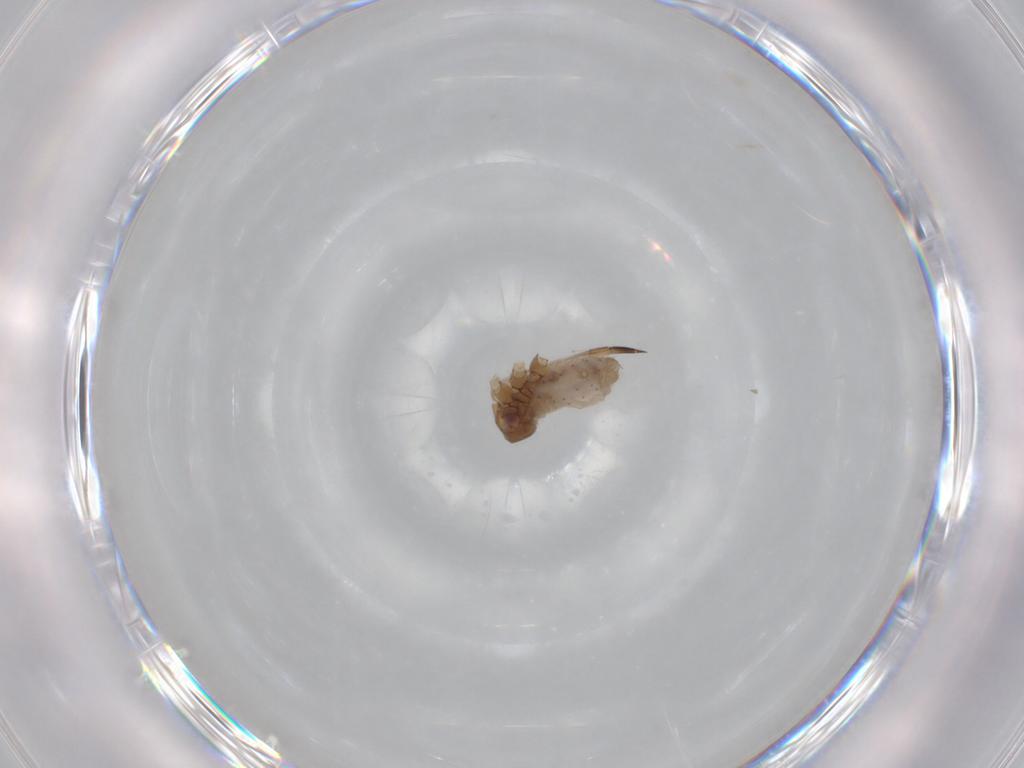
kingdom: Animalia
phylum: Arthropoda
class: Insecta
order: Hemiptera
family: Aphididae
